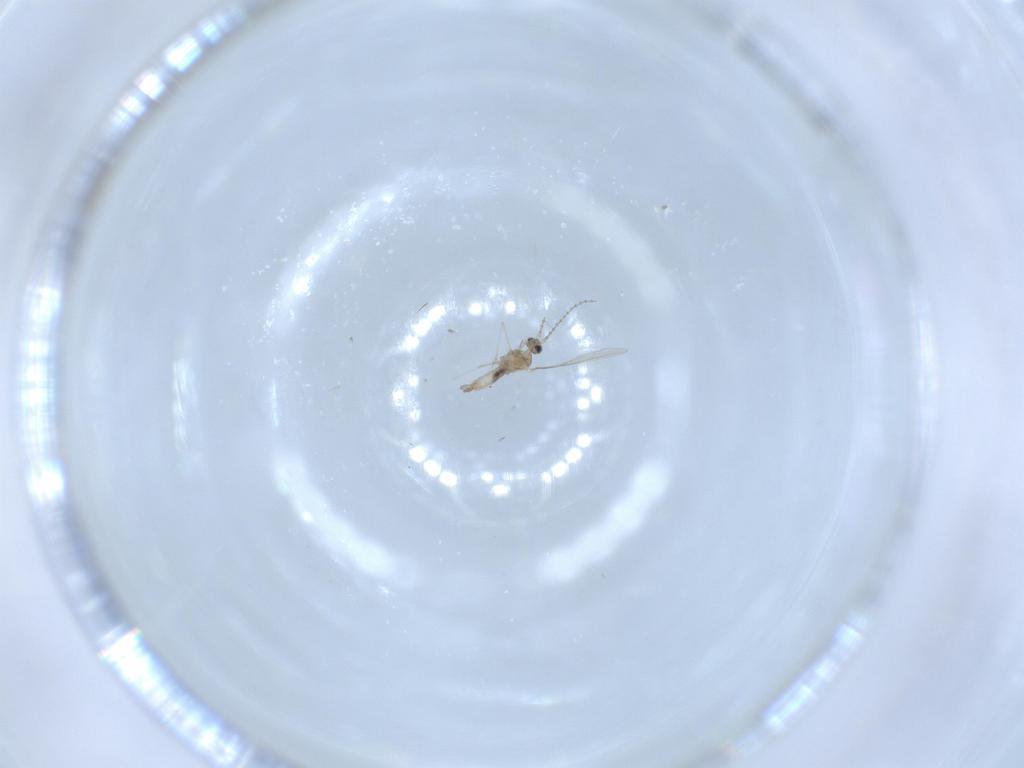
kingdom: Animalia
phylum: Arthropoda
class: Insecta
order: Diptera
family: Cecidomyiidae
